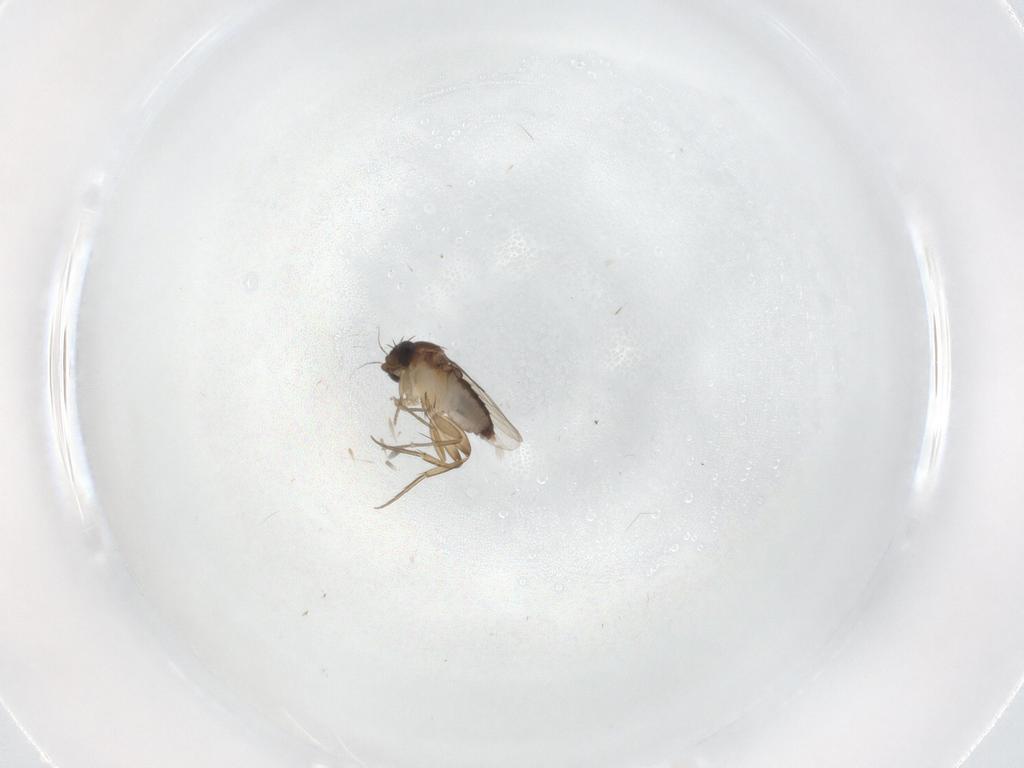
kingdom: Animalia
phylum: Arthropoda
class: Insecta
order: Diptera
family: Phoridae
